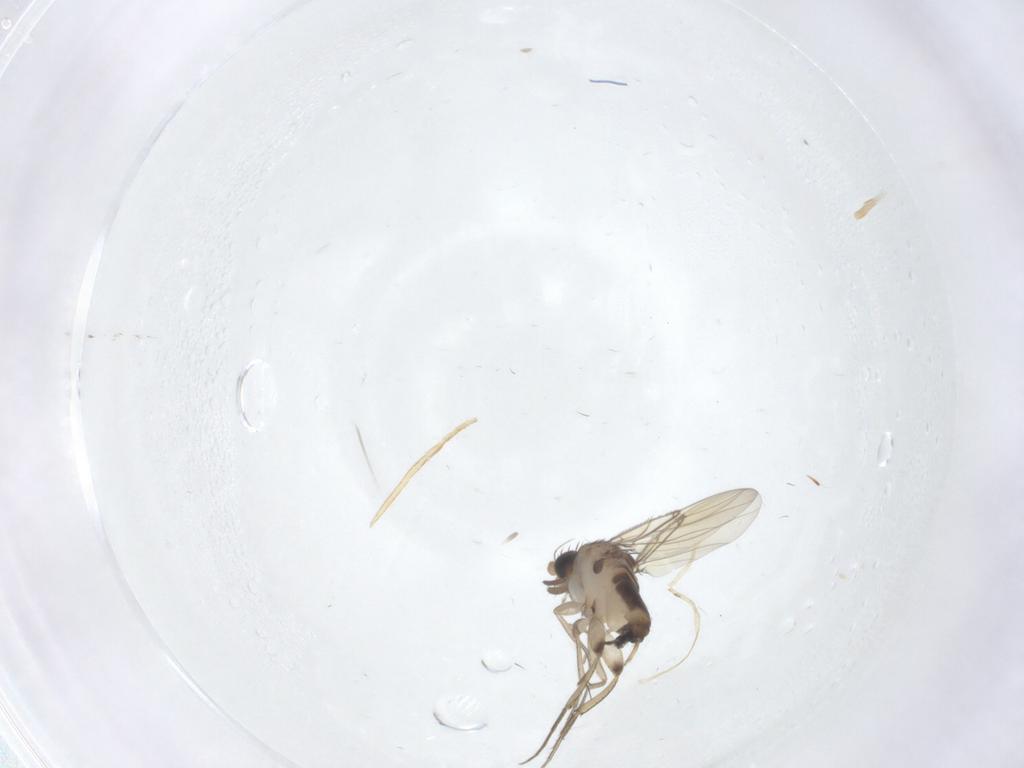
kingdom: Animalia
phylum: Arthropoda
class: Insecta
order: Diptera
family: Phoridae
